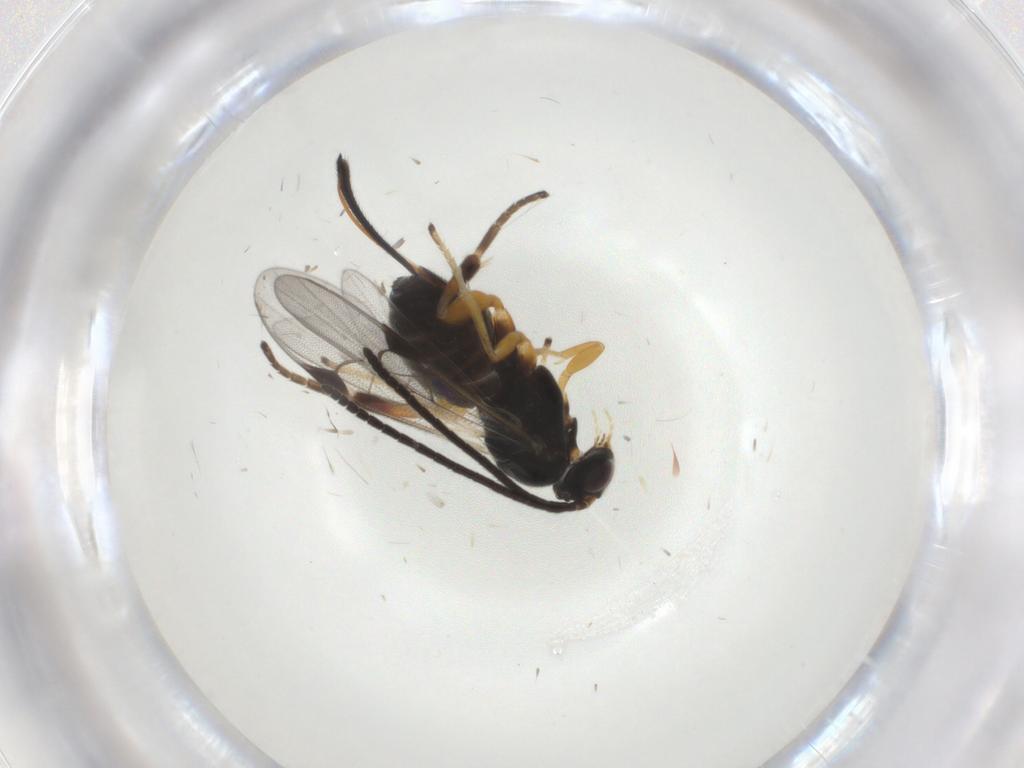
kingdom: Animalia
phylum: Arthropoda
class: Insecta
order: Hymenoptera
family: Braconidae
